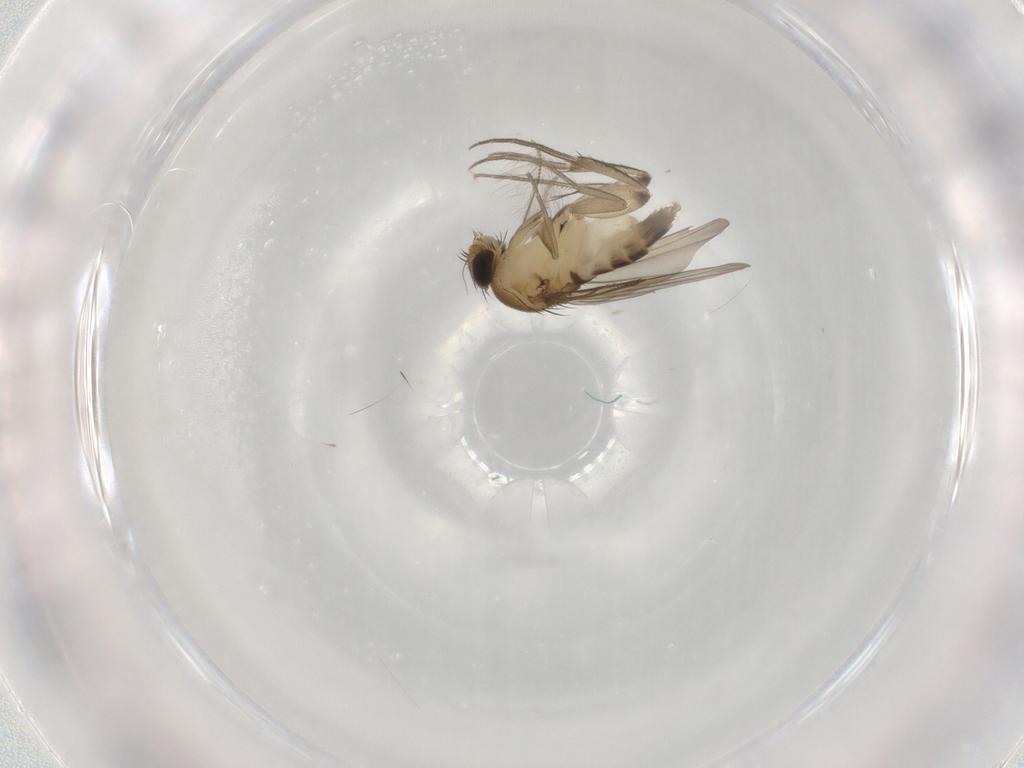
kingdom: Animalia
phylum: Arthropoda
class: Insecta
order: Diptera
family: Phoridae
